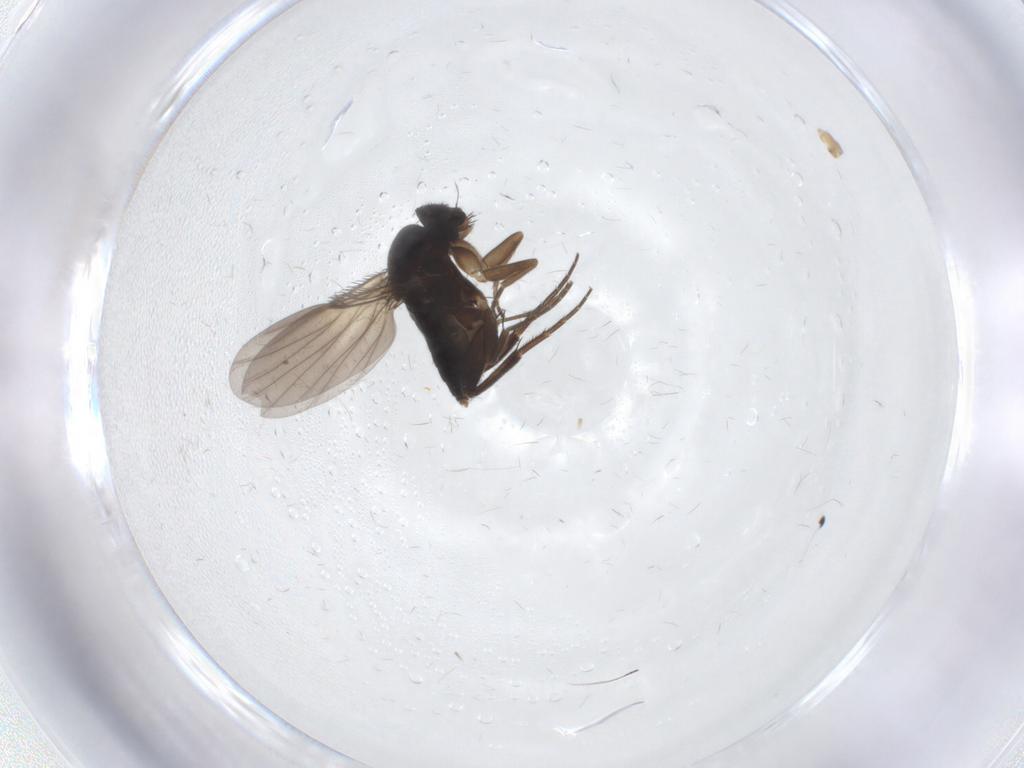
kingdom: Animalia
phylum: Arthropoda
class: Insecta
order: Diptera
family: Phoridae
